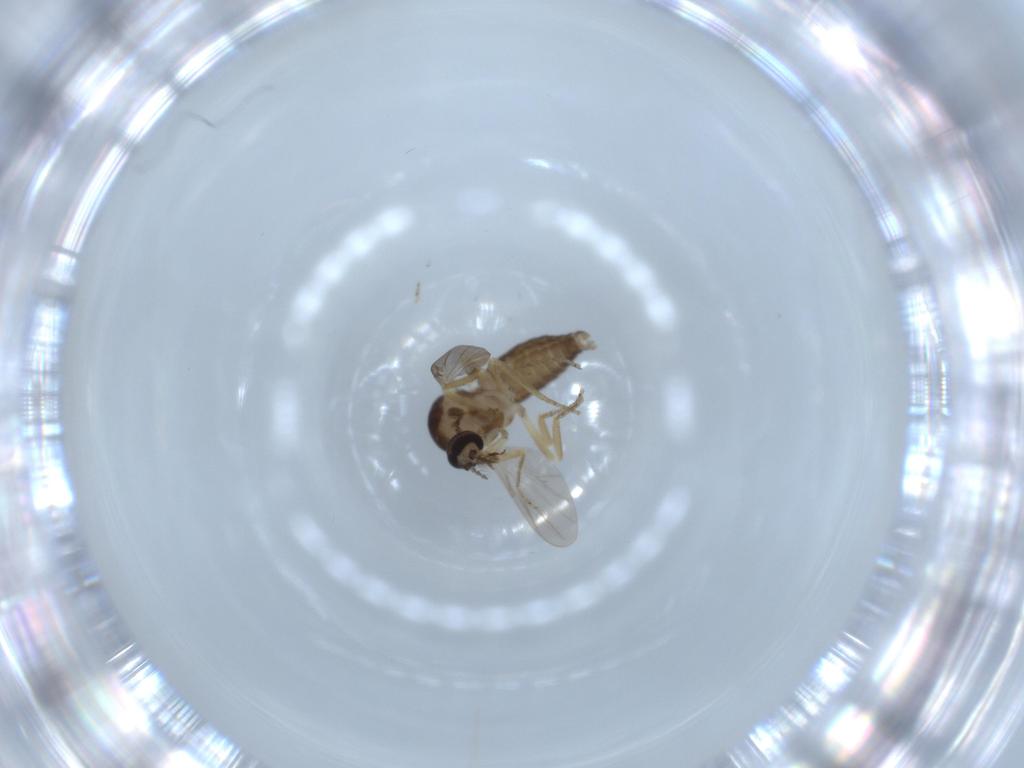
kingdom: Animalia
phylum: Arthropoda
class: Insecta
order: Diptera
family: Ceratopogonidae
